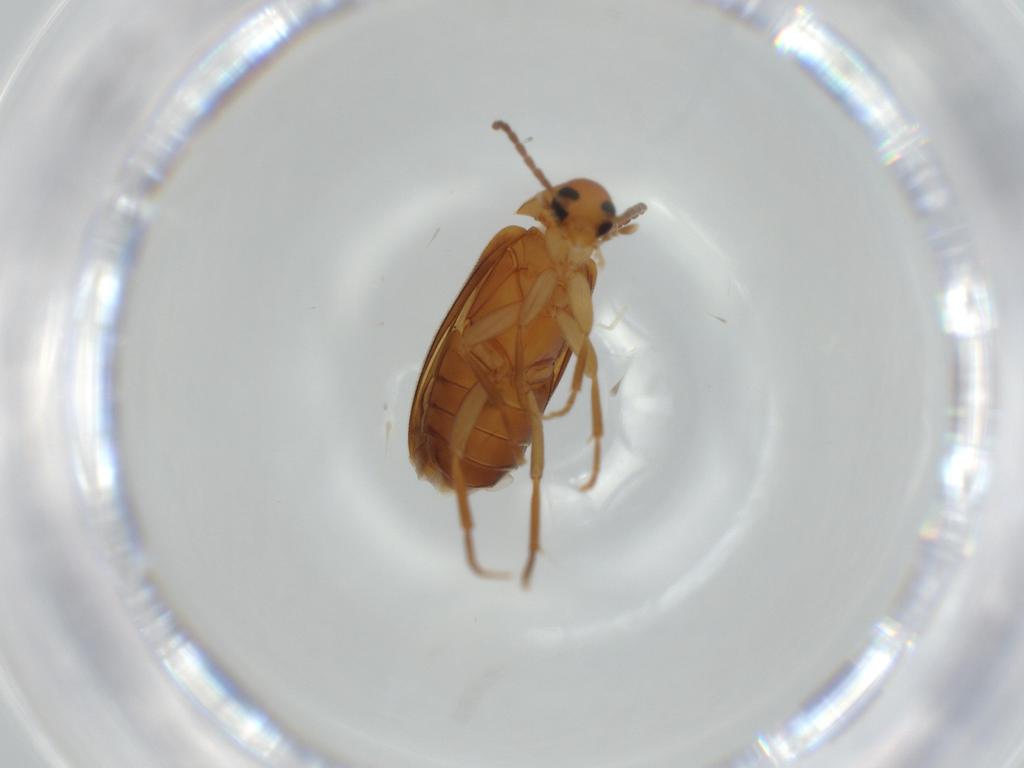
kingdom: Animalia
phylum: Arthropoda
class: Insecta
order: Coleoptera
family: Scraptiidae
